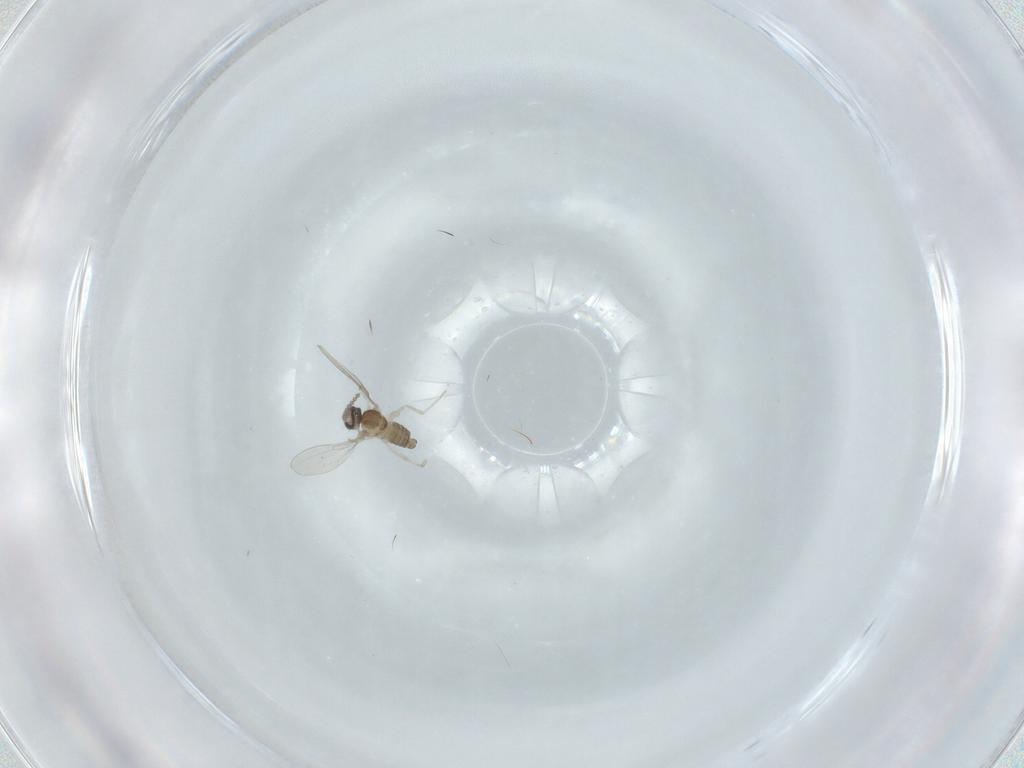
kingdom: Animalia
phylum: Arthropoda
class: Insecta
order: Diptera
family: Cecidomyiidae
